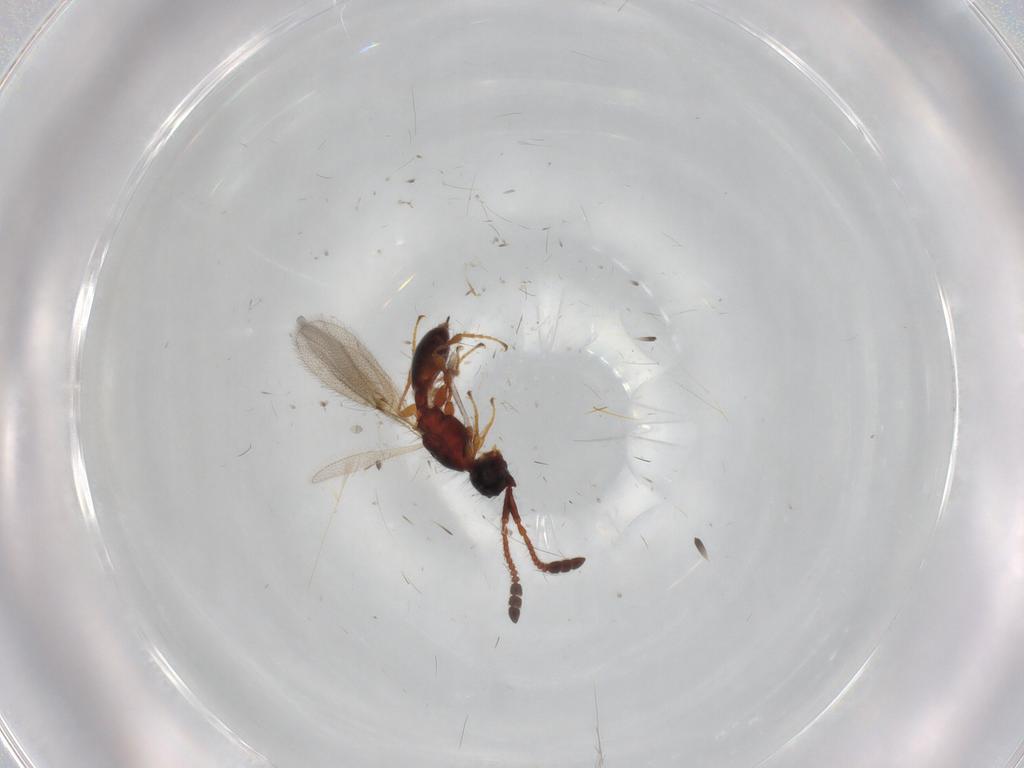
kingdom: Animalia
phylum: Arthropoda
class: Insecta
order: Hymenoptera
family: Diapriidae
